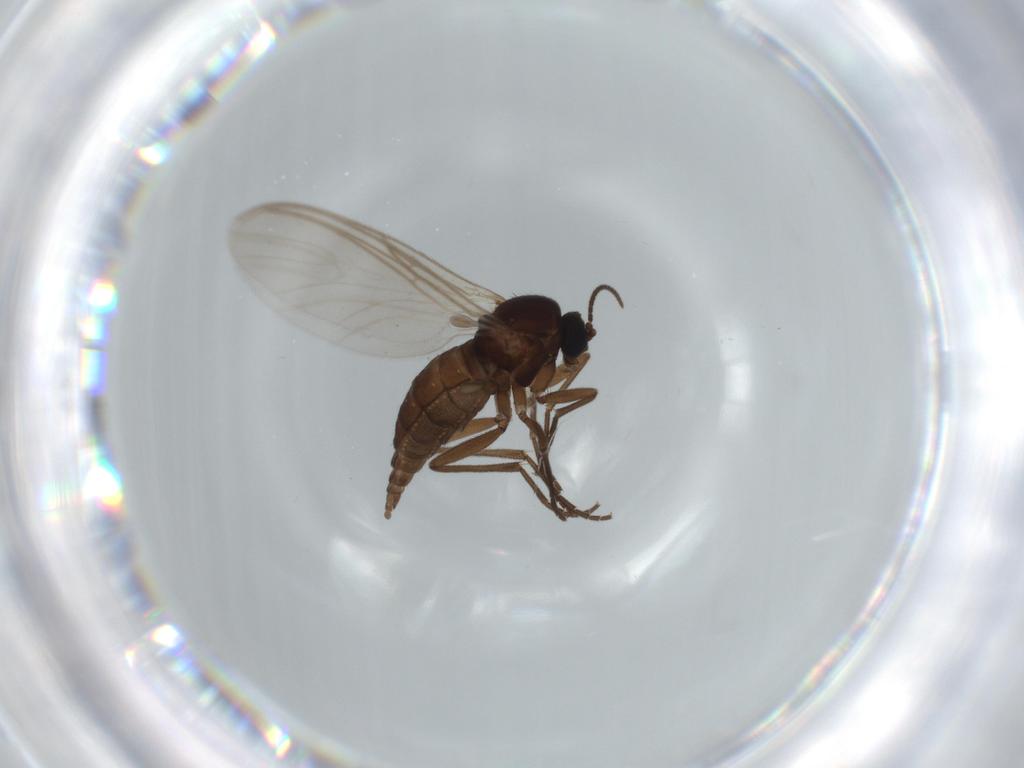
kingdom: Animalia
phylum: Arthropoda
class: Insecta
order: Diptera
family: Sciaridae
